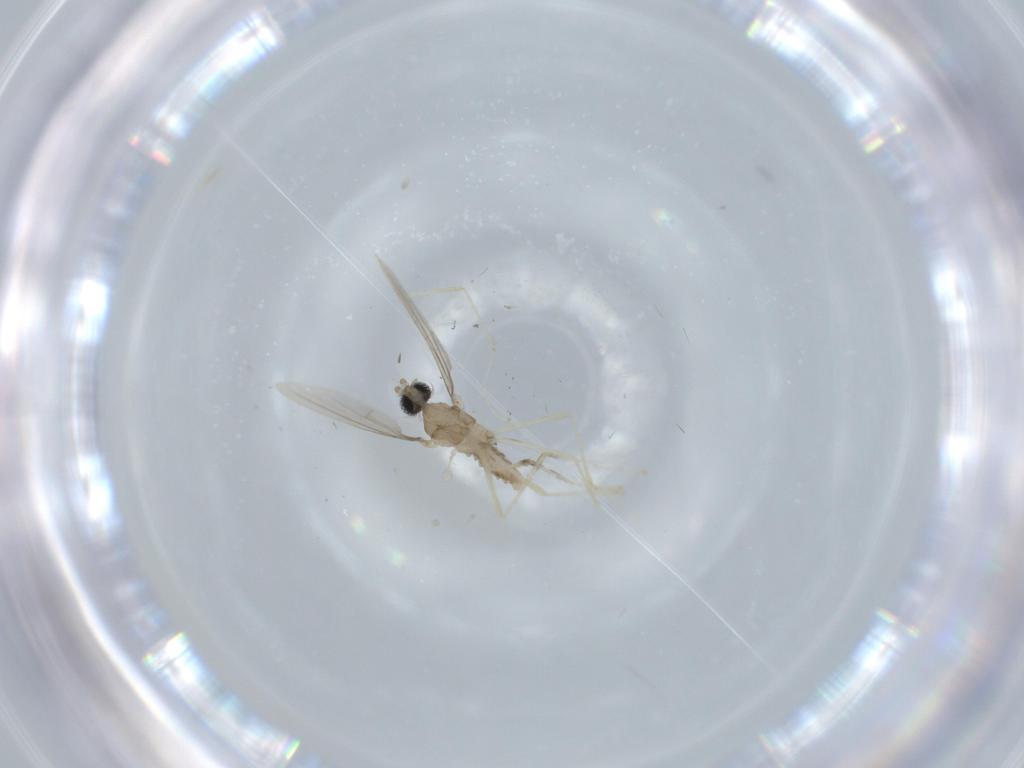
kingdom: Animalia
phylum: Arthropoda
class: Insecta
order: Diptera
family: Cecidomyiidae
